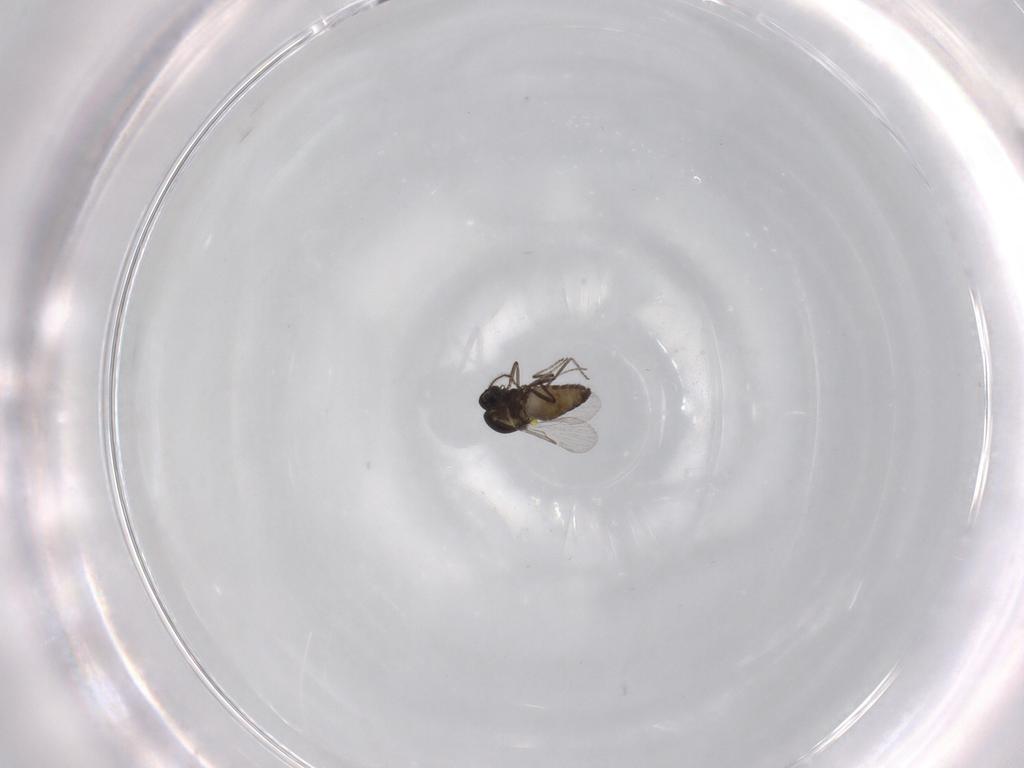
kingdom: Animalia
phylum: Arthropoda
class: Insecta
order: Diptera
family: Ceratopogonidae
